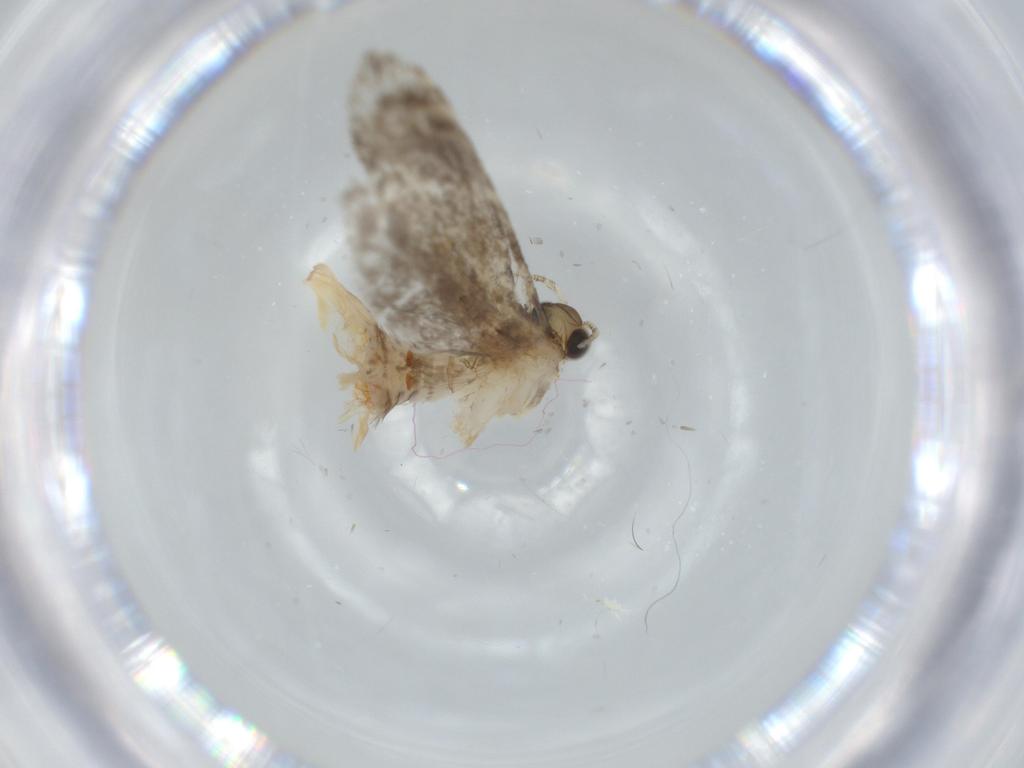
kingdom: Animalia
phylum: Arthropoda
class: Insecta
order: Lepidoptera
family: Tineidae
